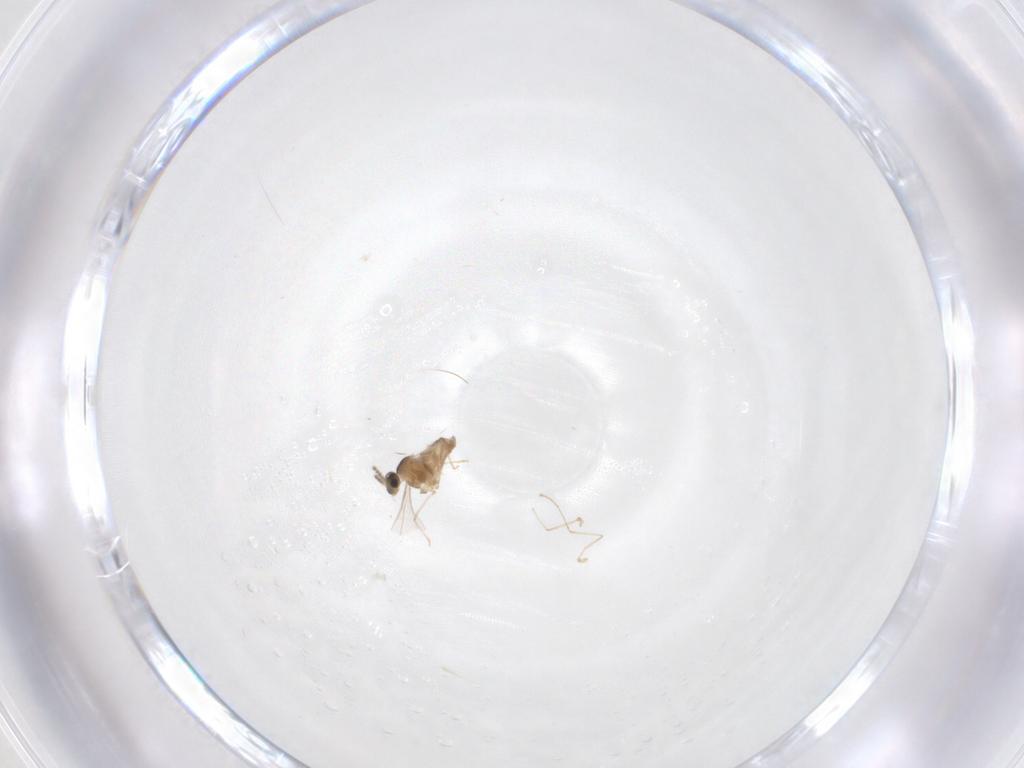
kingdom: Animalia
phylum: Arthropoda
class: Insecta
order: Diptera
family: Cecidomyiidae
